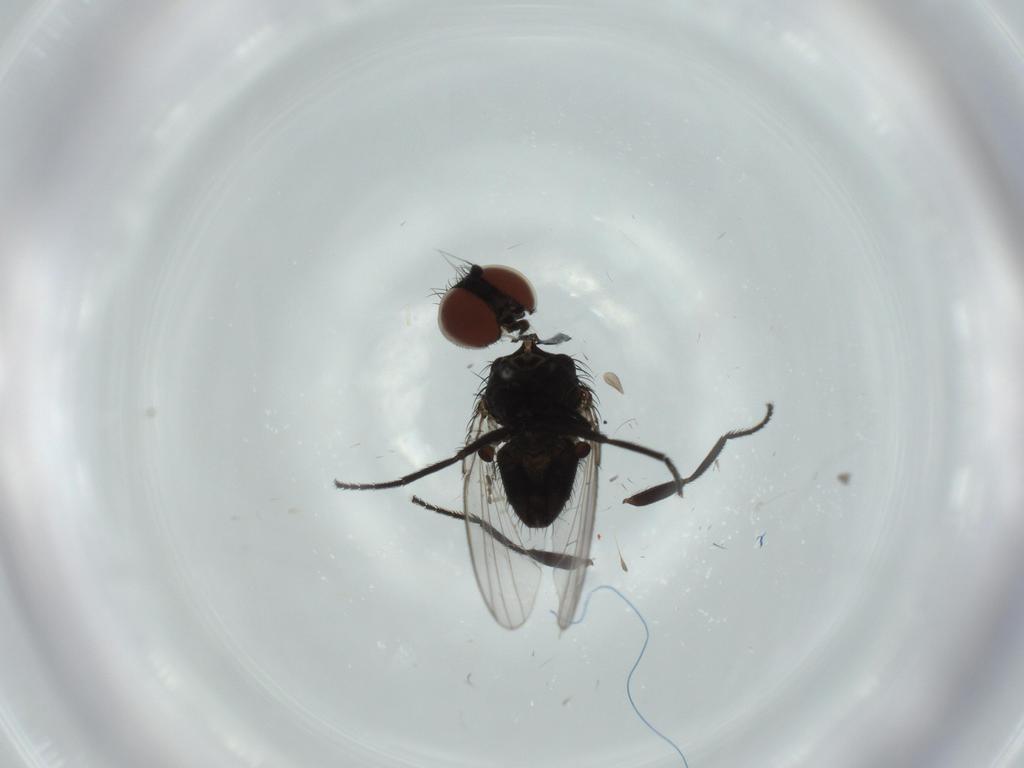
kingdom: Animalia
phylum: Arthropoda
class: Insecta
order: Diptera
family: Milichiidae
